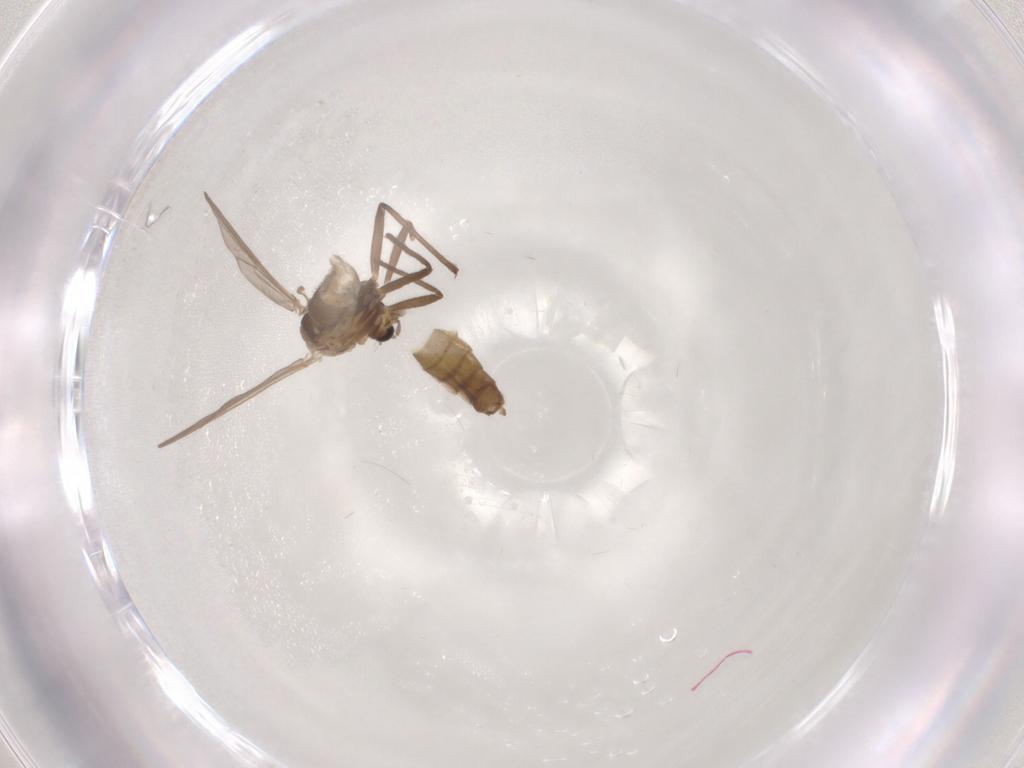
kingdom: Animalia
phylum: Arthropoda
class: Insecta
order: Diptera
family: Chironomidae
